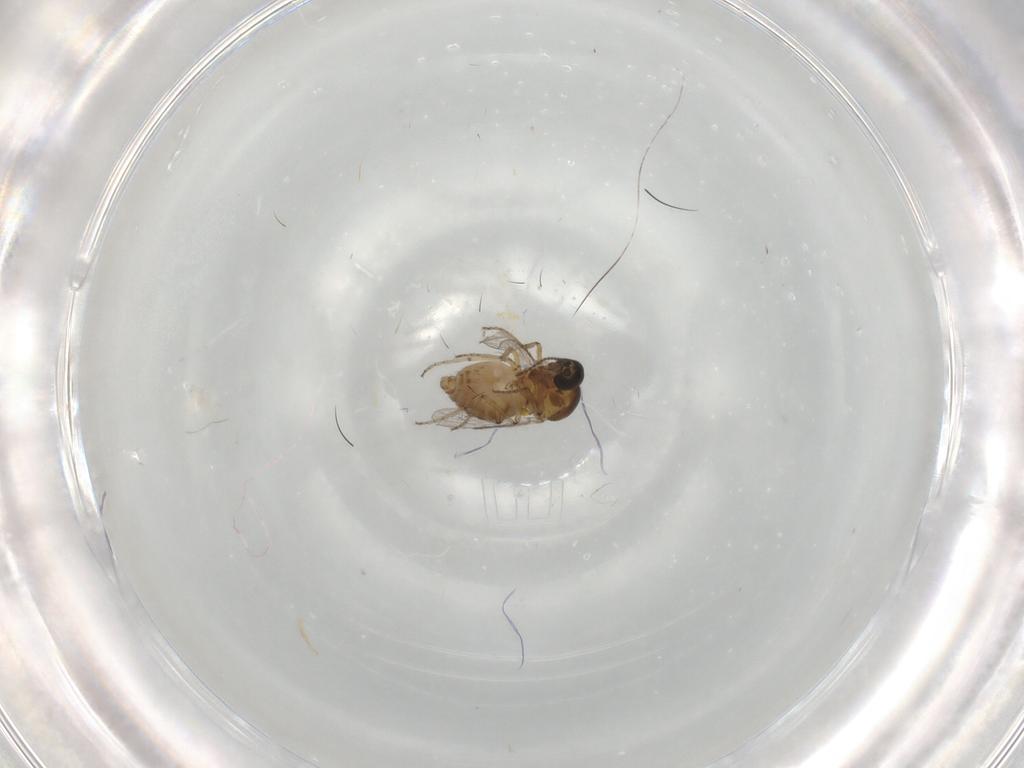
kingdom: Animalia
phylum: Arthropoda
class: Insecta
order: Diptera
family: Ceratopogonidae
